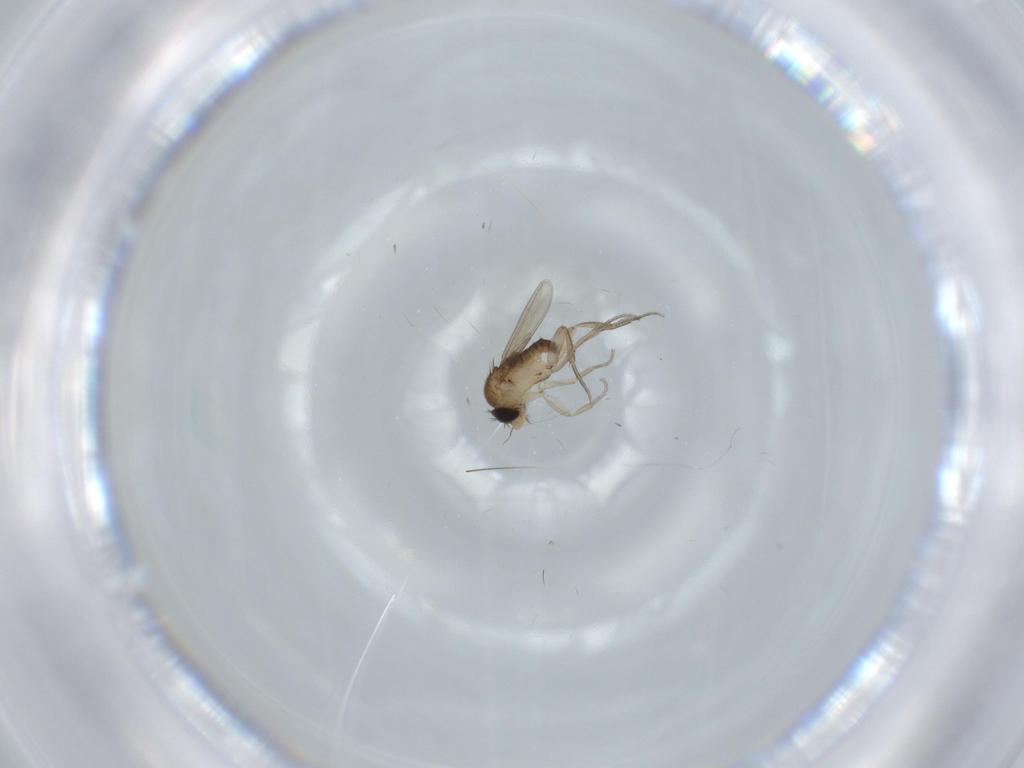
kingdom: Animalia
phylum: Arthropoda
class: Insecta
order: Diptera
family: Phoridae
